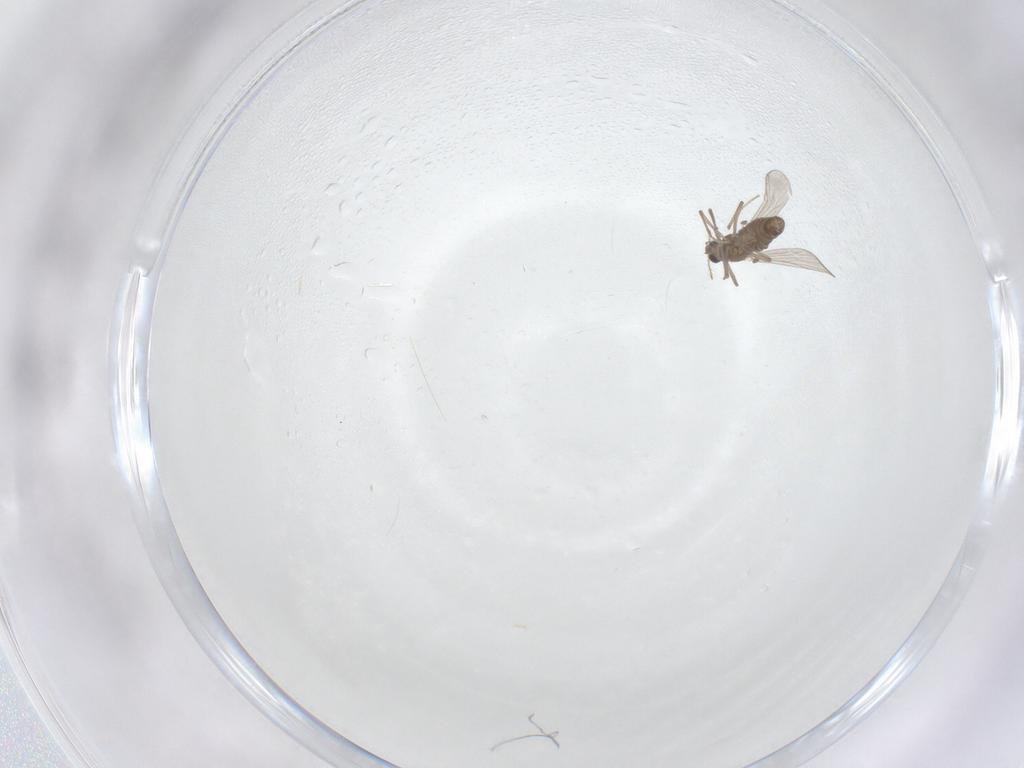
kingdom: Animalia
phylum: Arthropoda
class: Insecta
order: Diptera
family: Chironomidae
